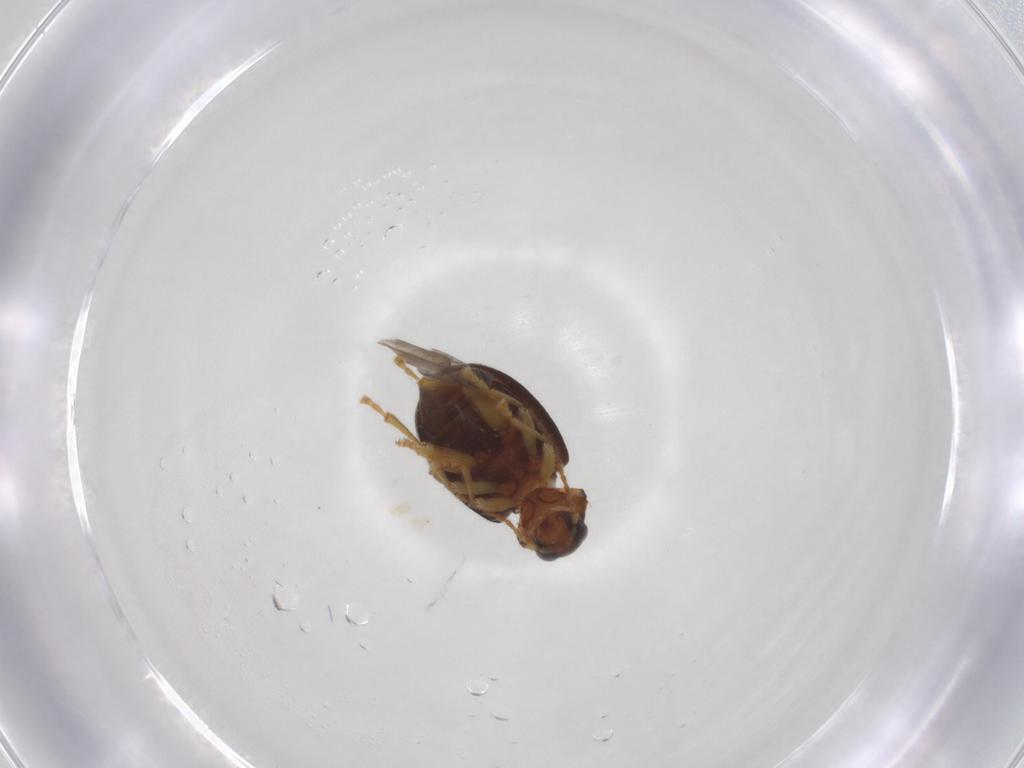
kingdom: Animalia
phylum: Arthropoda
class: Insecta
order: Coleoptera
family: Chrysomelidae
